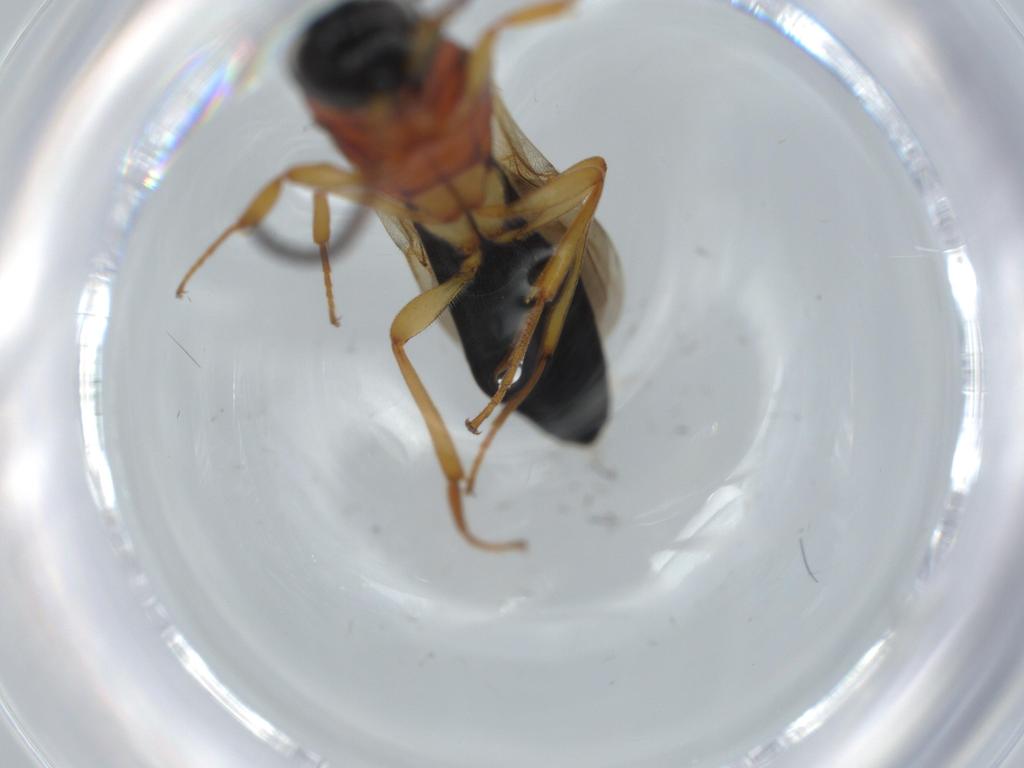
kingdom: Animalia
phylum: Arthropoda
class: Insecta
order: Hymenoptera
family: Scelionidae
